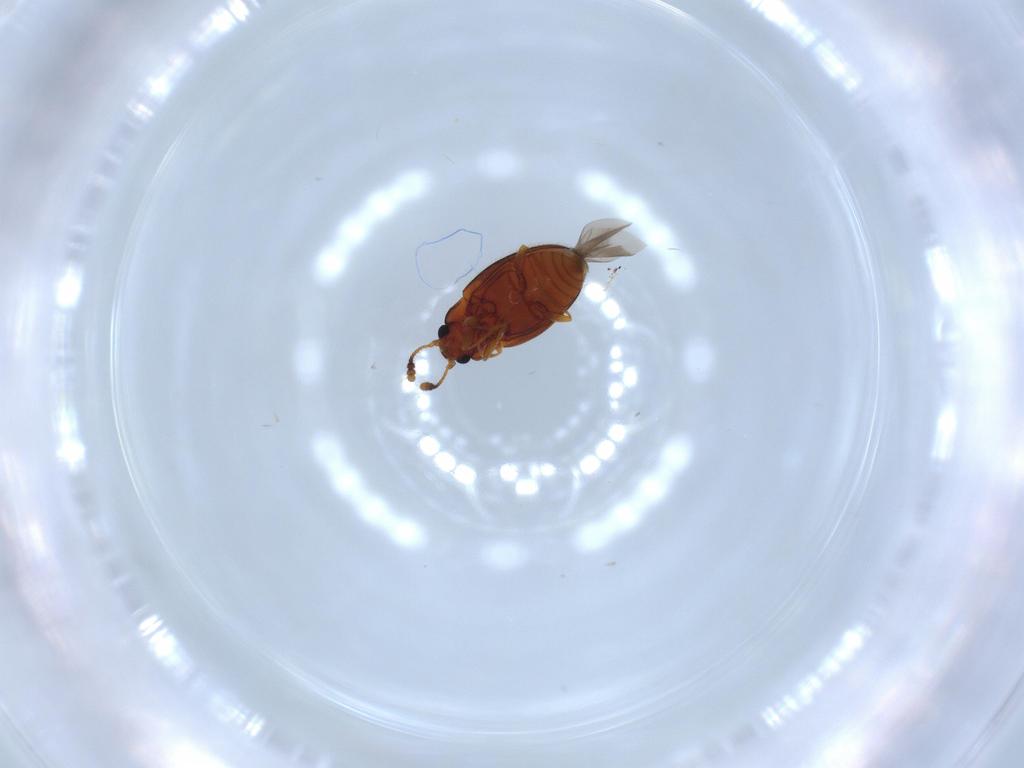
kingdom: Animalia
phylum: Arthropoda
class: Insecta
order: Coleoptera
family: Erotylidae
